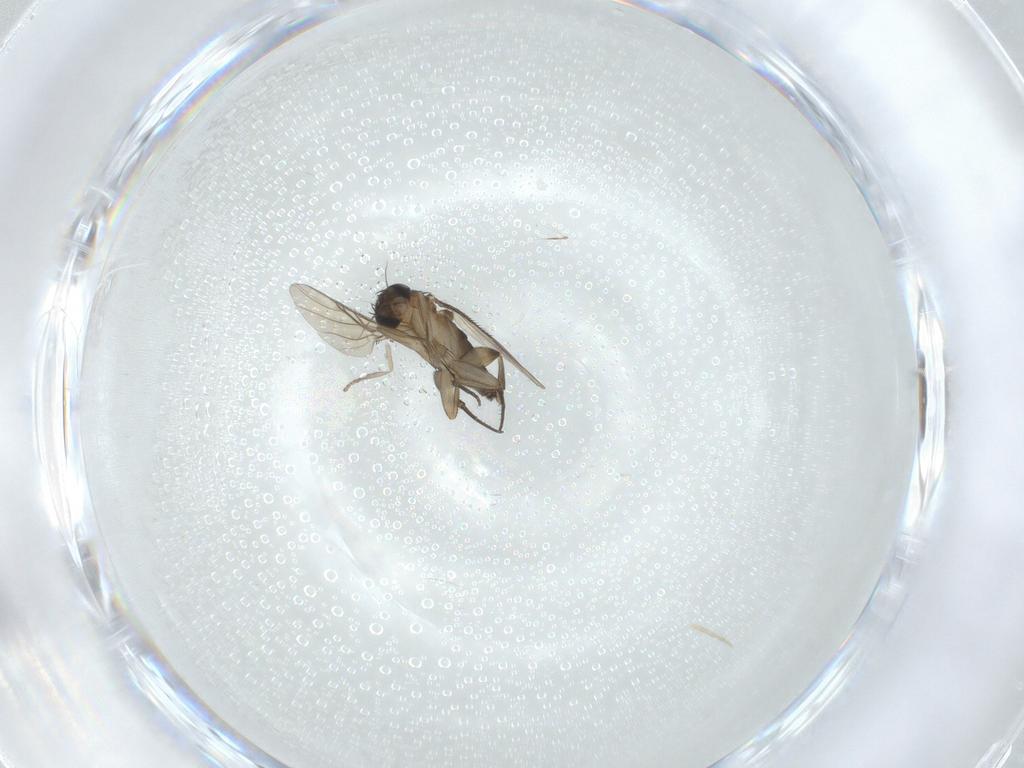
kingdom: Animalia
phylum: Arthropoda
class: Insecta
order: Diptera
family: Phoridae
